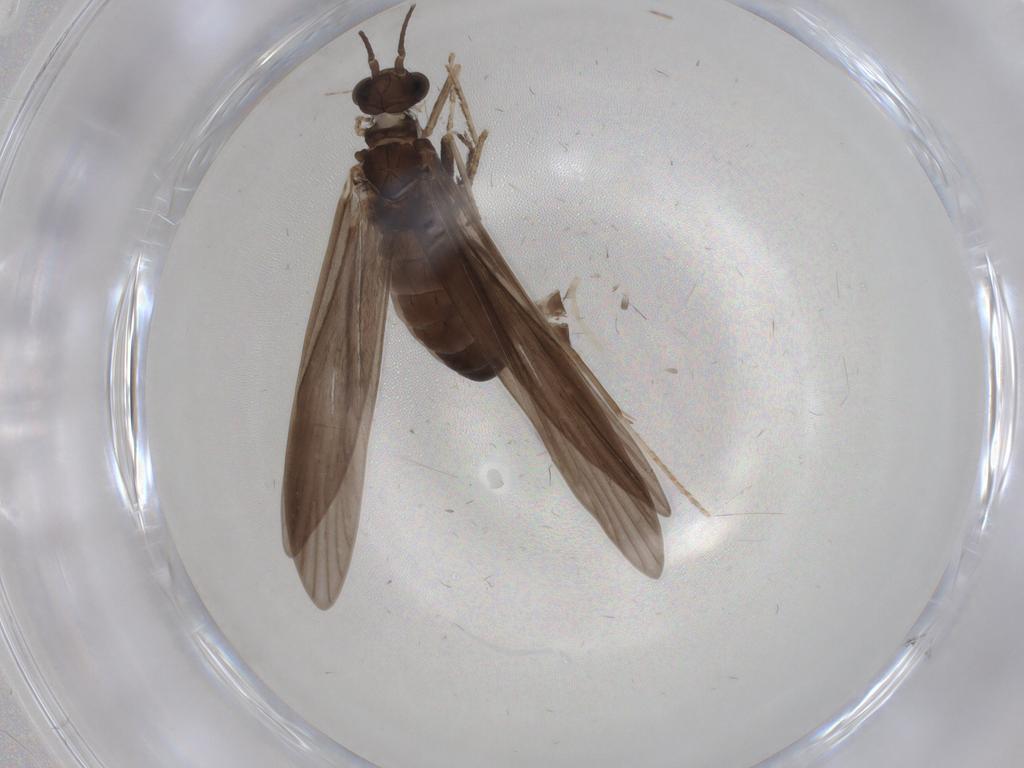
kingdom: Animalia
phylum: Arthropoda
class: Insecta
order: Trichoptera
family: Xiphocentronidae
